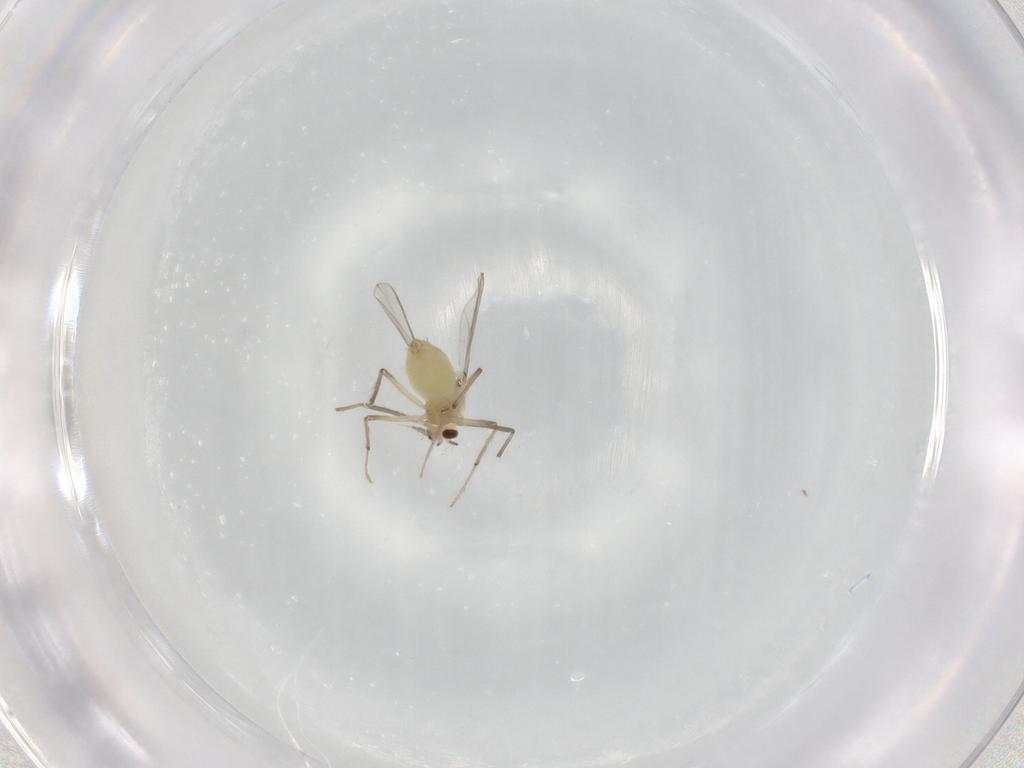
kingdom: Animalia
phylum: Arthropoda
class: Insecta
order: Diptera
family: Chironomidae
